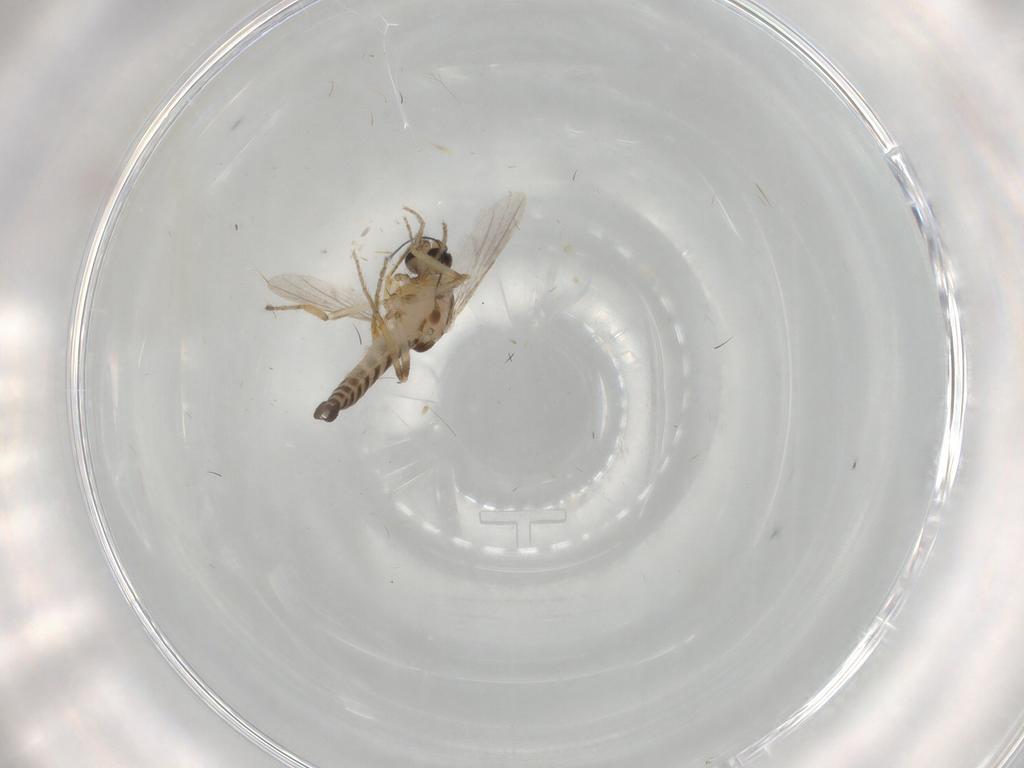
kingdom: Animalia
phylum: Arthropoda
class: Insecta
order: Diptera
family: Ceratopogonidae
